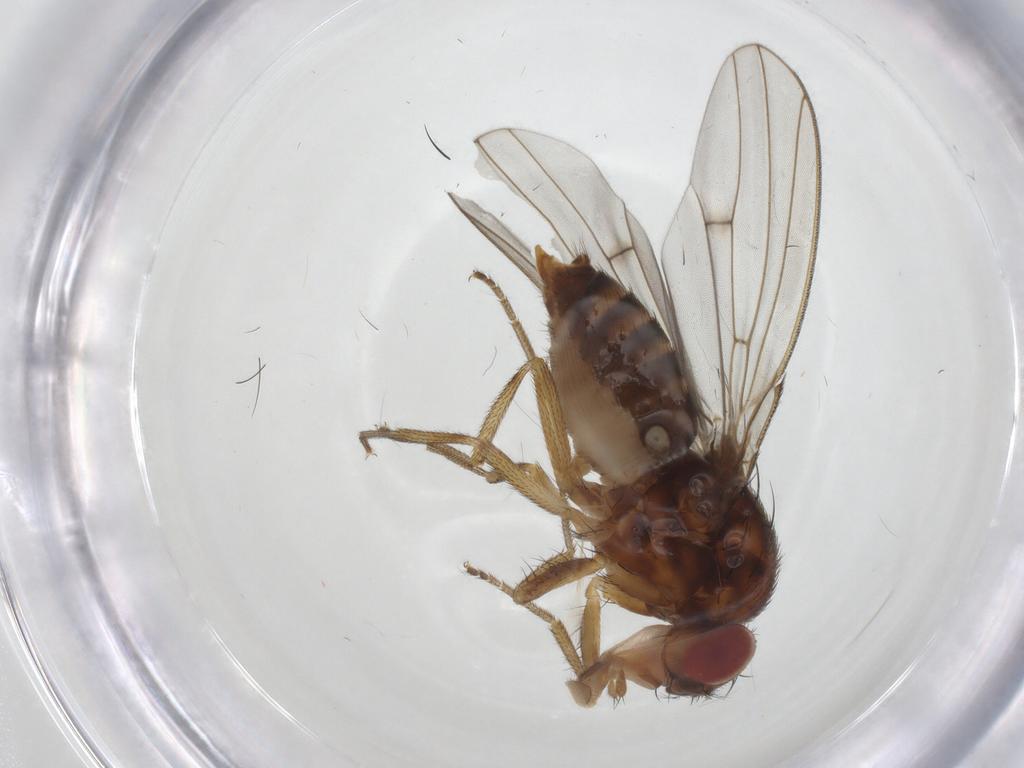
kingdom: Animalia
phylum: Arthropoda
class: Insecta
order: Diptera
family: Drosophilidae
